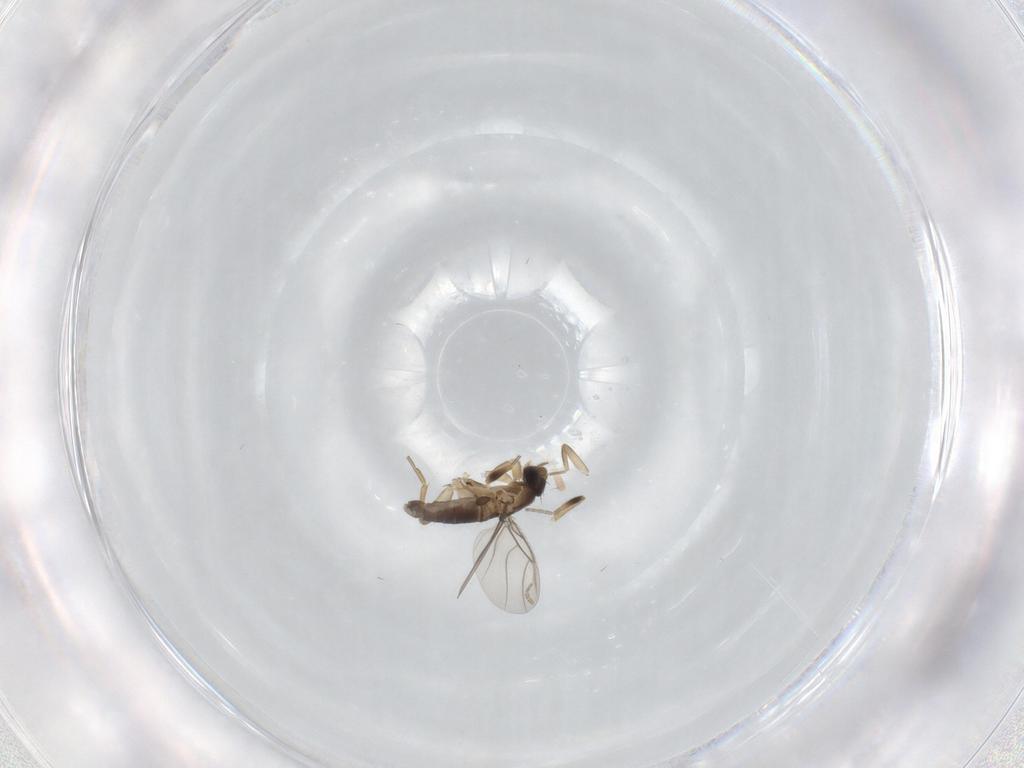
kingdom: Animalia
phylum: Arthropoda
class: Insecta
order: Diptera
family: Phoridae
